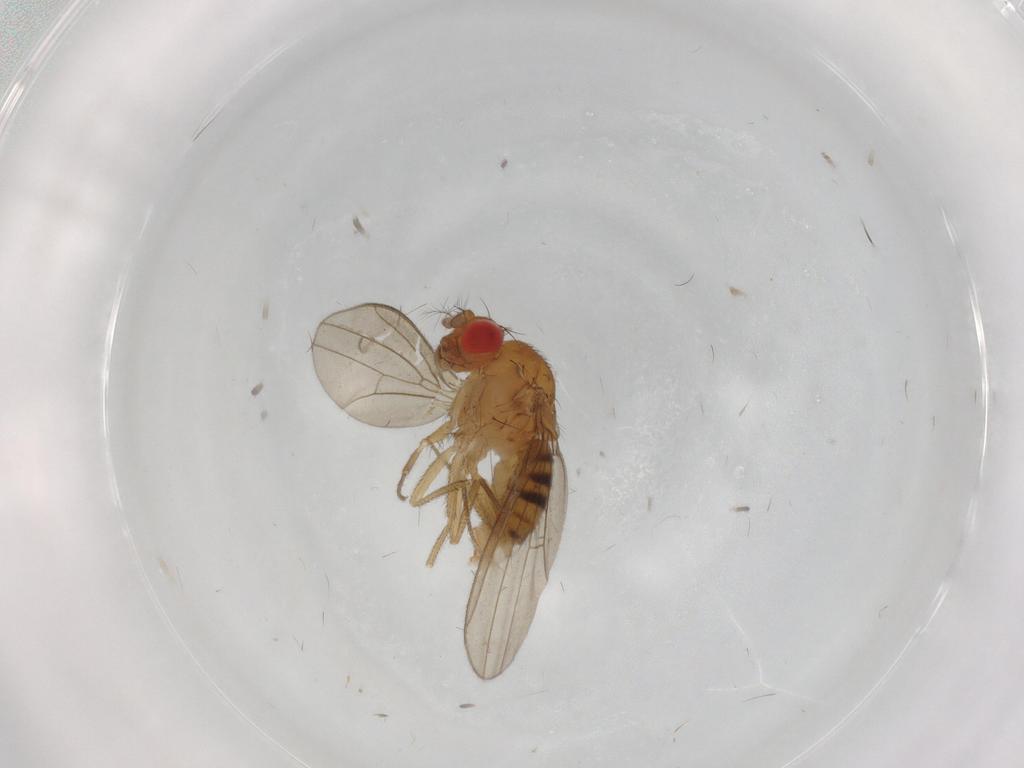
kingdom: Animalia
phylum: Arthropoda
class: Insecta
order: Diptera
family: Drosophilidae
